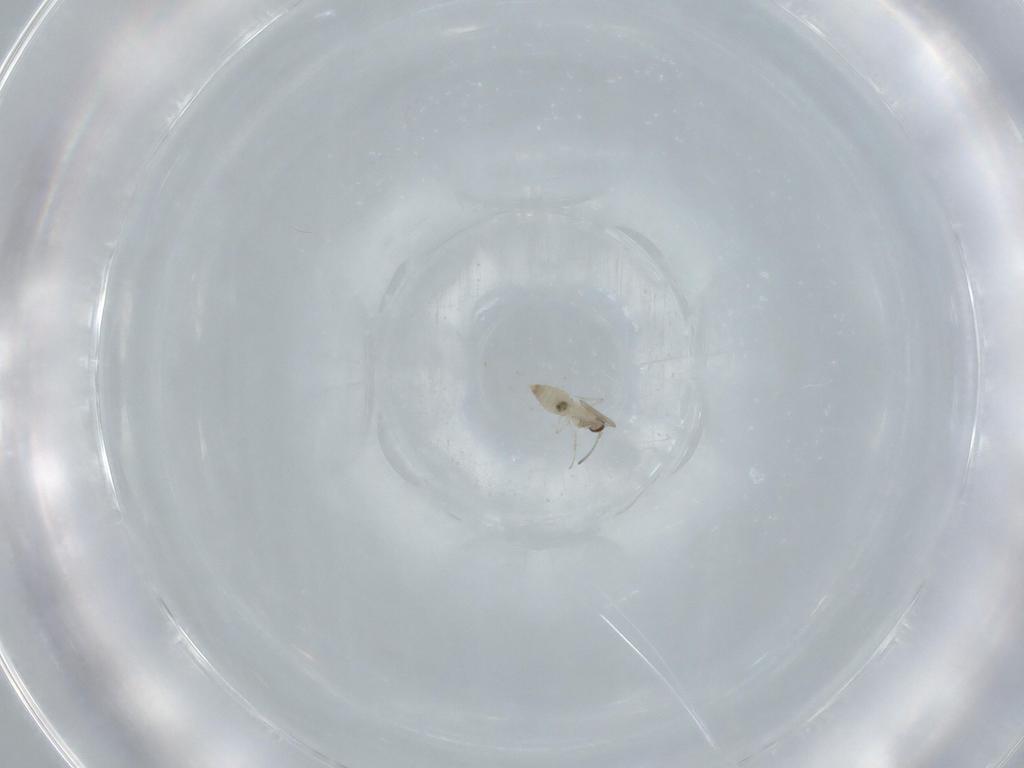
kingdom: Animalia
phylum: Arthropoda
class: Insecta
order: Diptera
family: Cecidomyiidae
